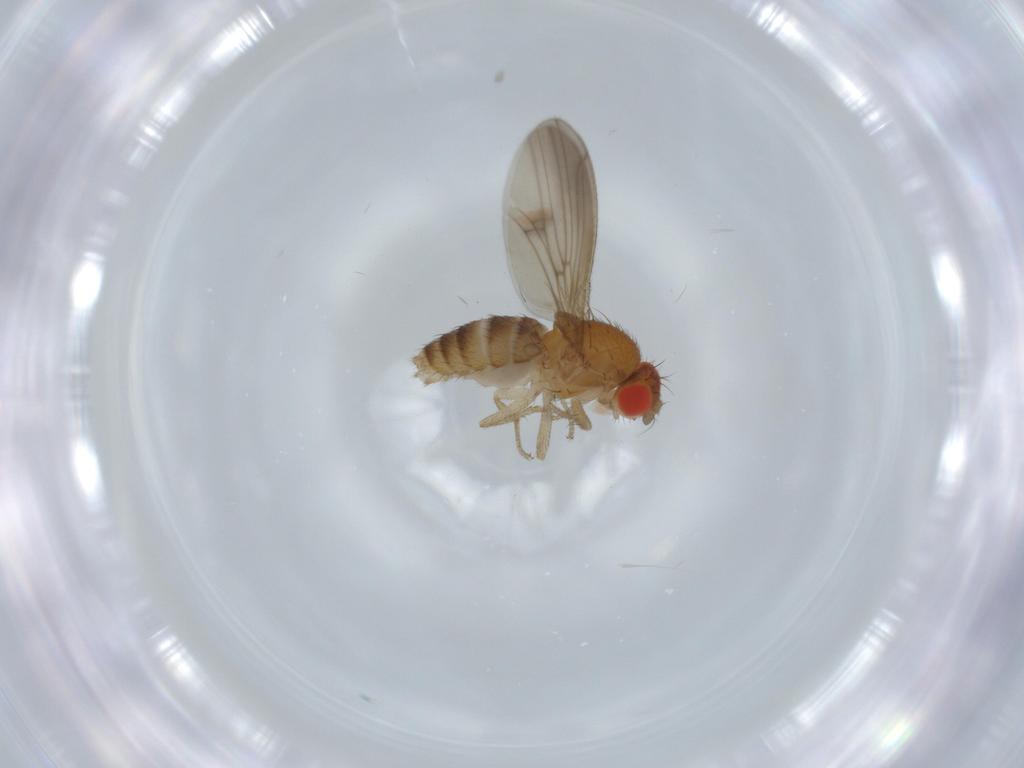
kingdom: Animalia
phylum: Arthropoda
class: Insecta
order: Diptera
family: Drosophilidae
